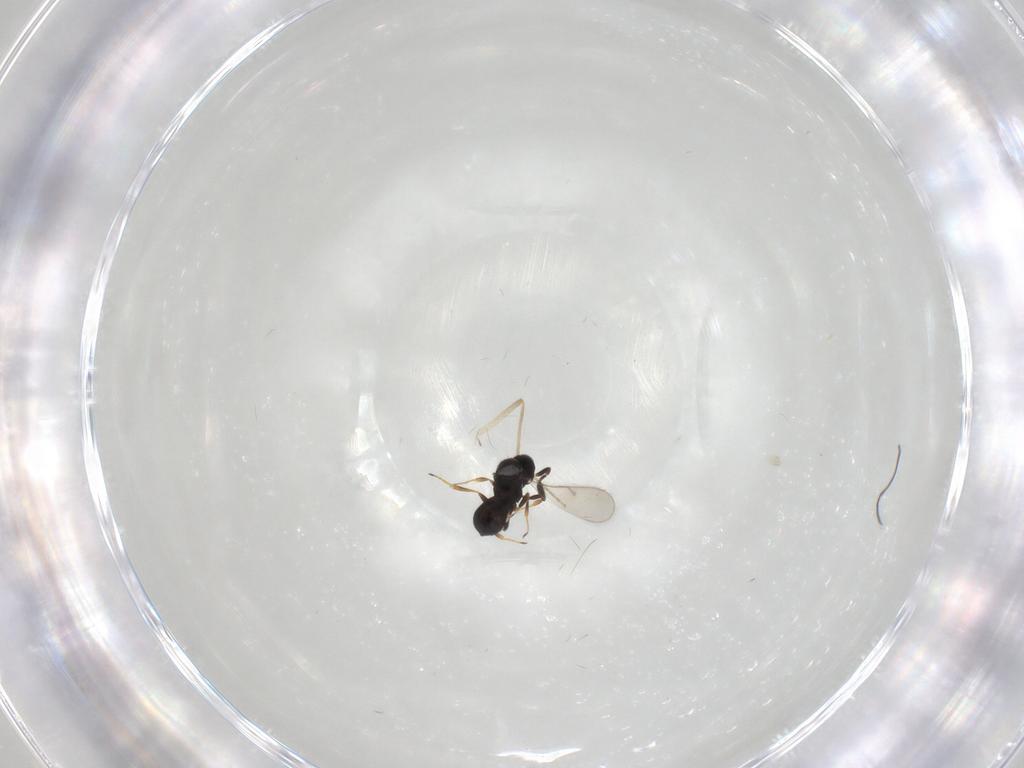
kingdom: Animalia
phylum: Arthropoda
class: Insecta
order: Hymenoptera
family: Scelionidae
